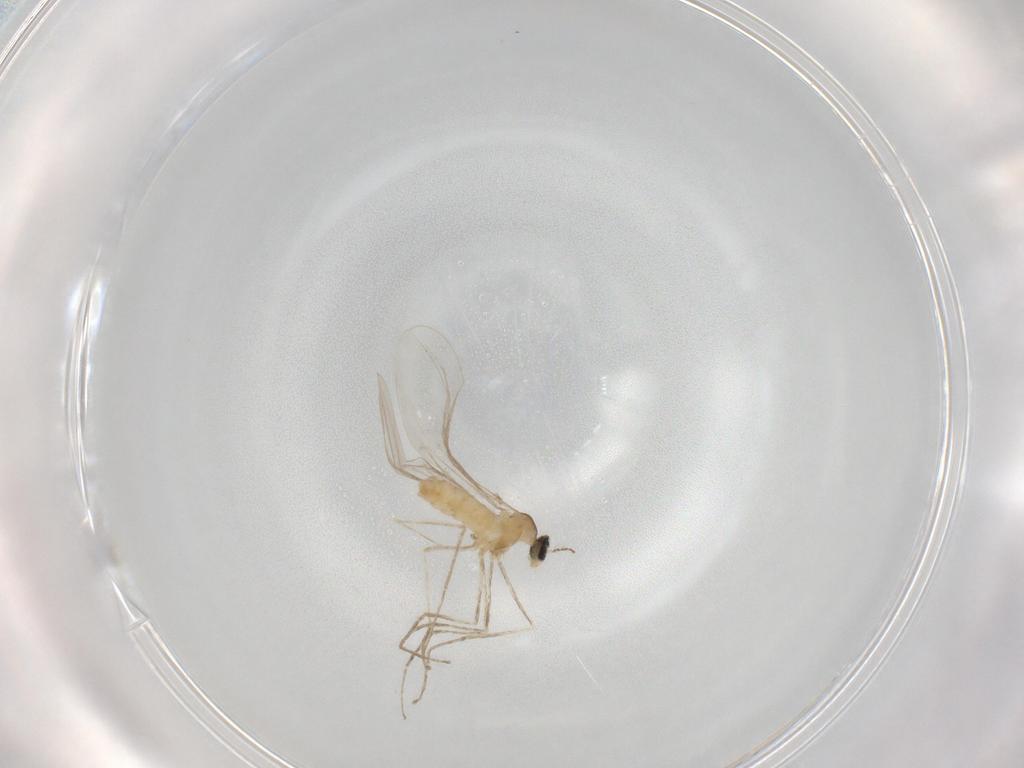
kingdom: Animalia
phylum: Arthropoda
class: Insecta
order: Diptera
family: Cecidomyiidae
